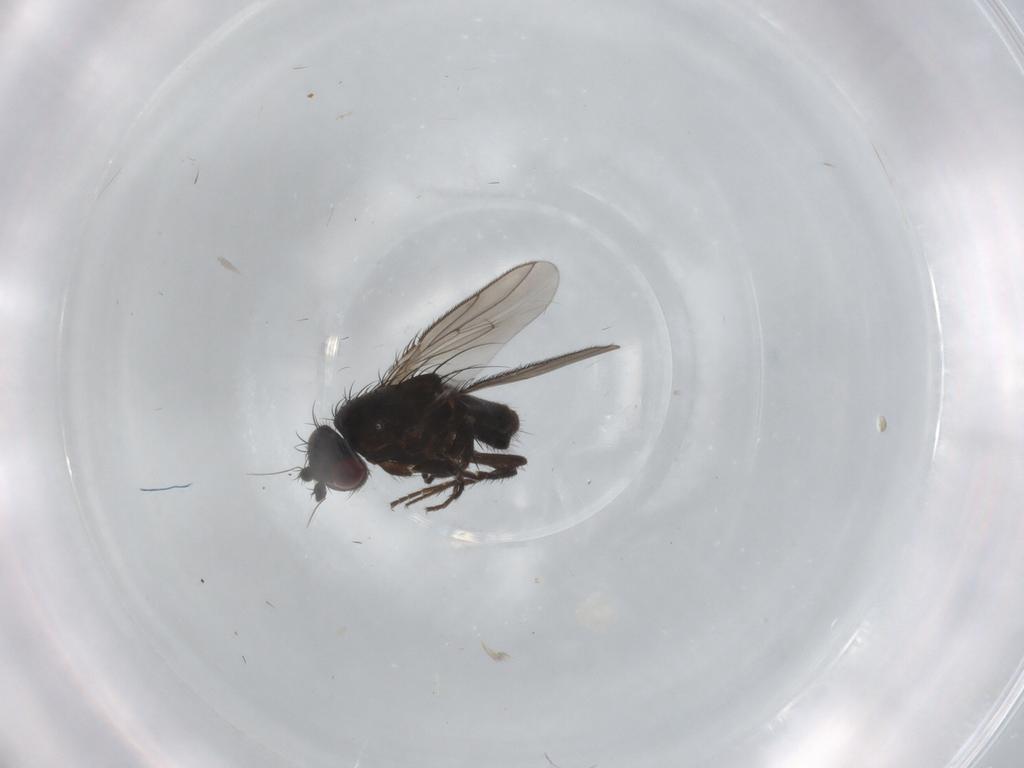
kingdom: Animalia
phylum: Arthropoda
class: Insecta
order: Diptera
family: Sphaeroceridae
